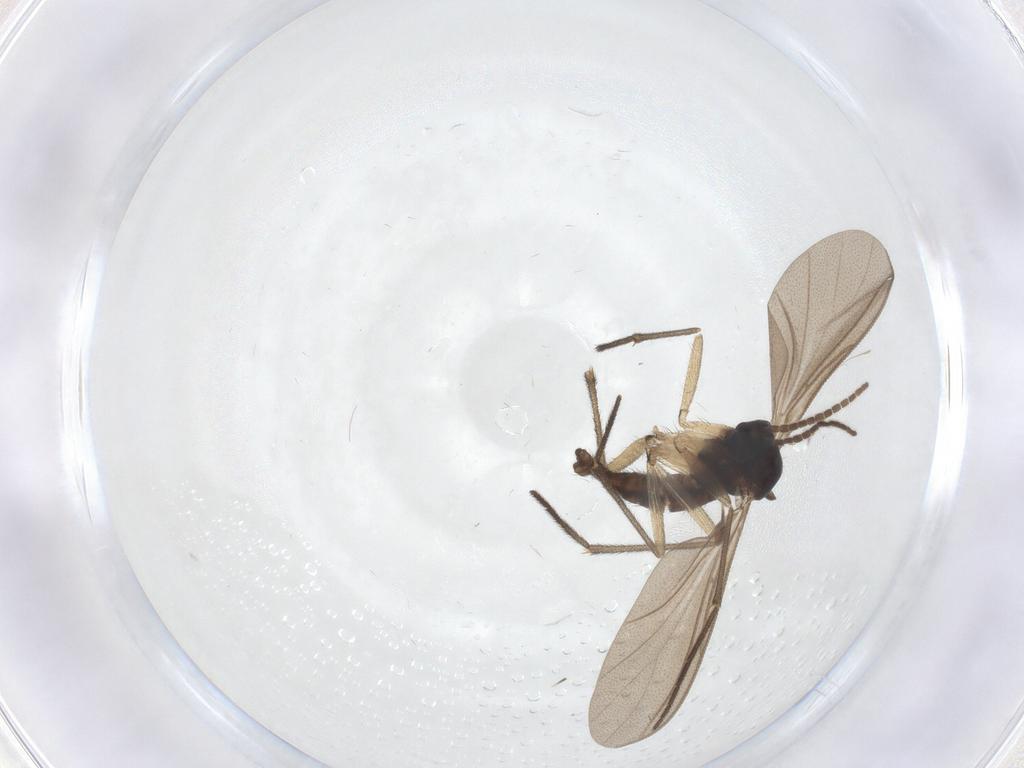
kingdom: Animalia
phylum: Arthropoda
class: Insecta
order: Diptera
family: Sciaridae
